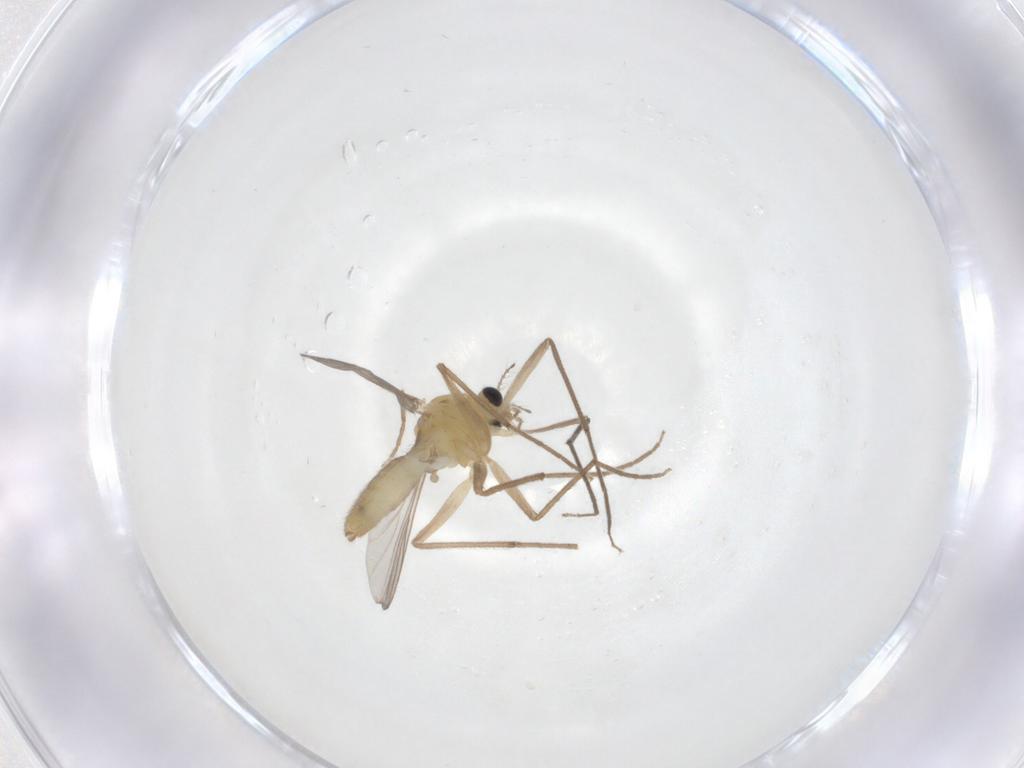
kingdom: Animalia
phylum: Arthropoda
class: Insecta
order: Diptera
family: Chironomidae
